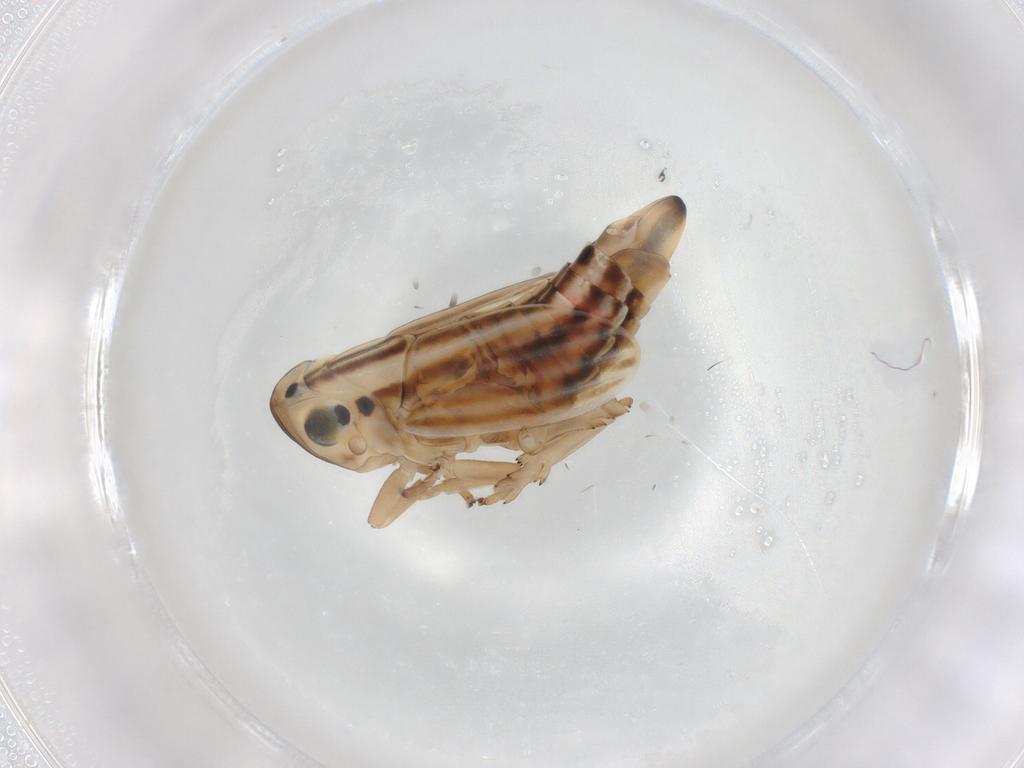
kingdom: Animalia
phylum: Arthropoda
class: Insecta
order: Hemiptera
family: Fulgoroidea_incertae_sedis
